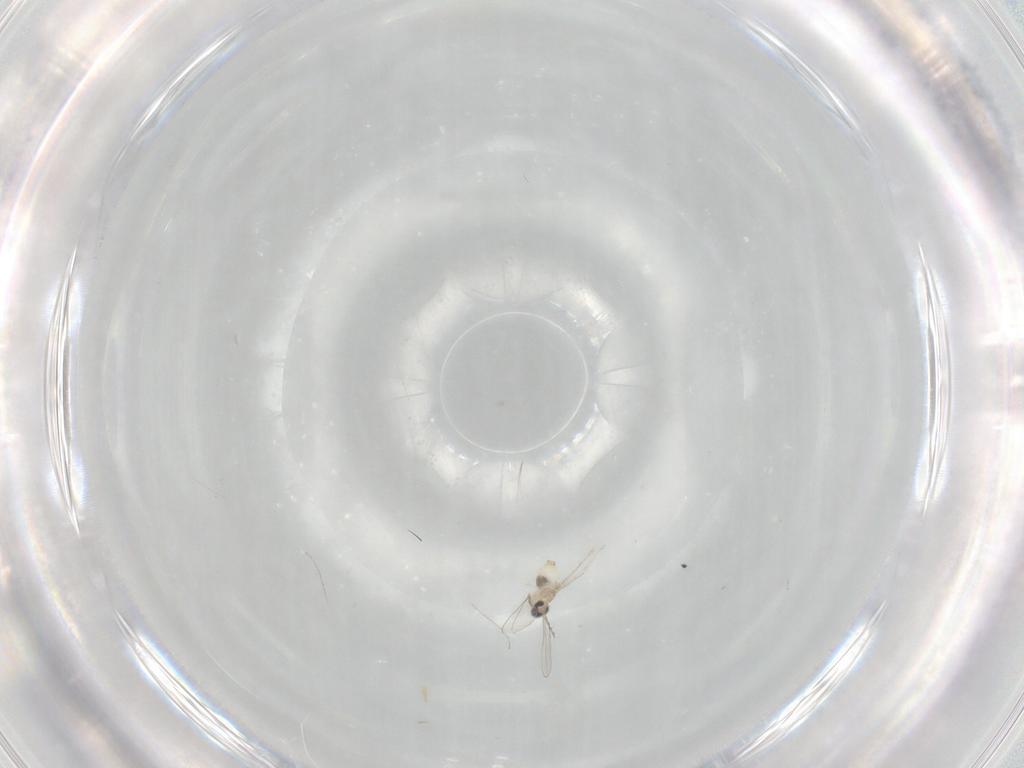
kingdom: Animalia
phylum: Arthropoda
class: Insecta
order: Diptera
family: Cecidomyiidae
